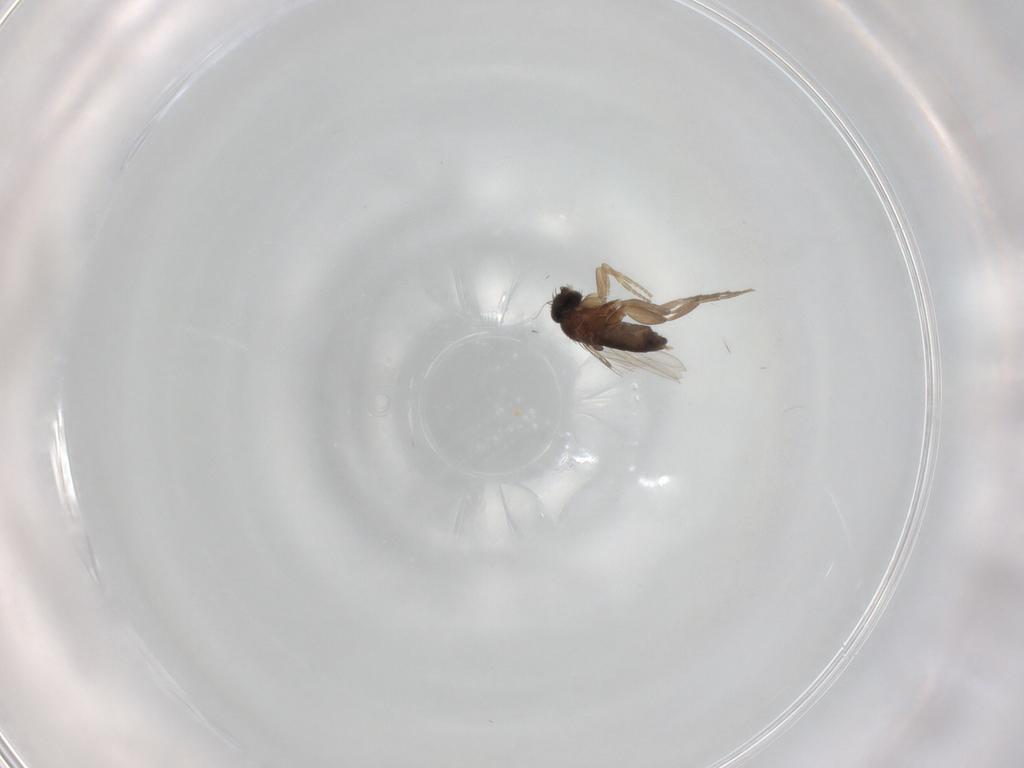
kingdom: Animalia
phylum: Arthropoda
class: Insecta
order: Diptera
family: Phoridae
